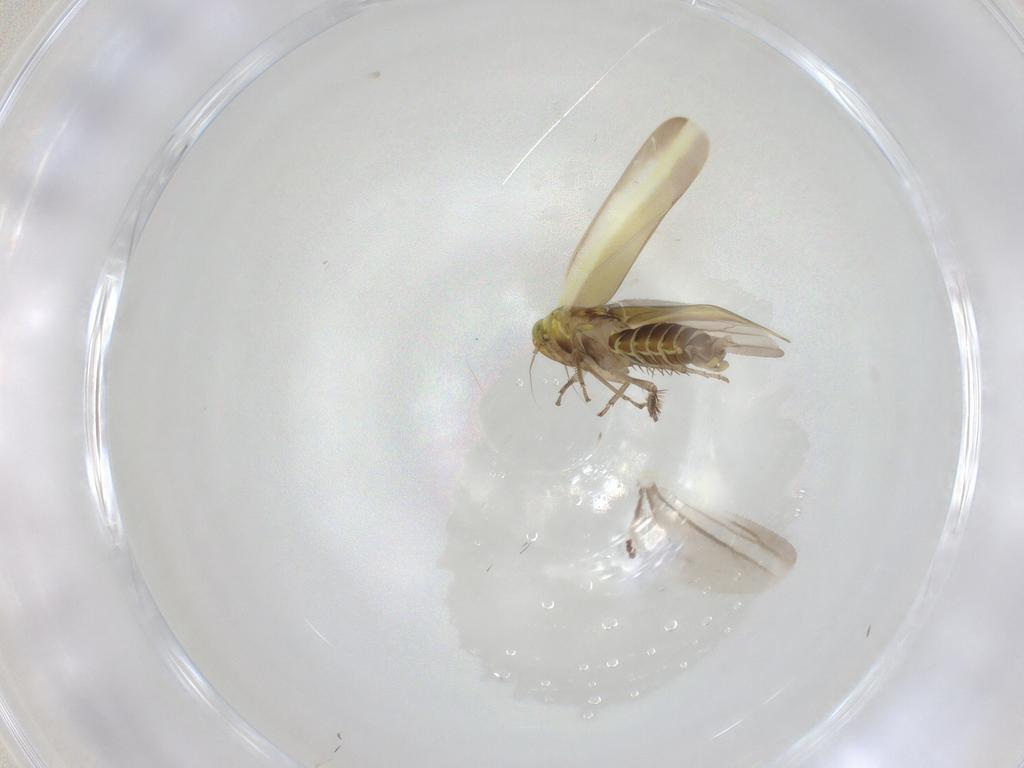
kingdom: Animalia
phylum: Arthropoda
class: Insecta
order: Hemiptera
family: Cicadellidae
